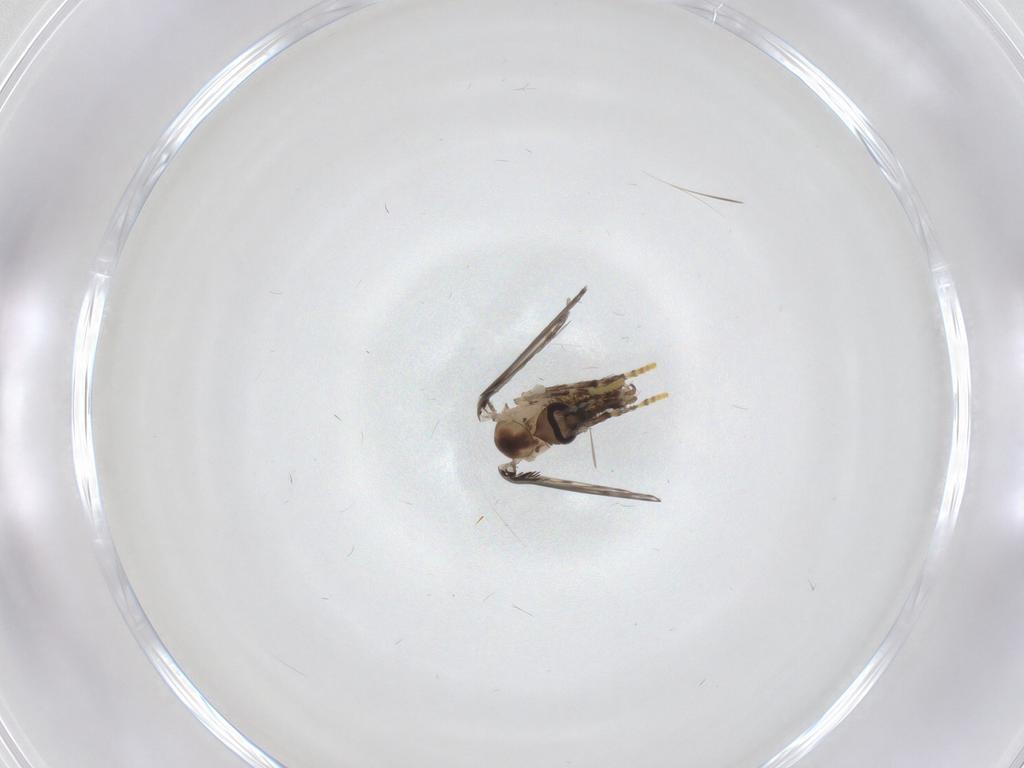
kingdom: Animalia
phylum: Arthropoda
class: Insecta
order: Diptera
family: Psychodidae
